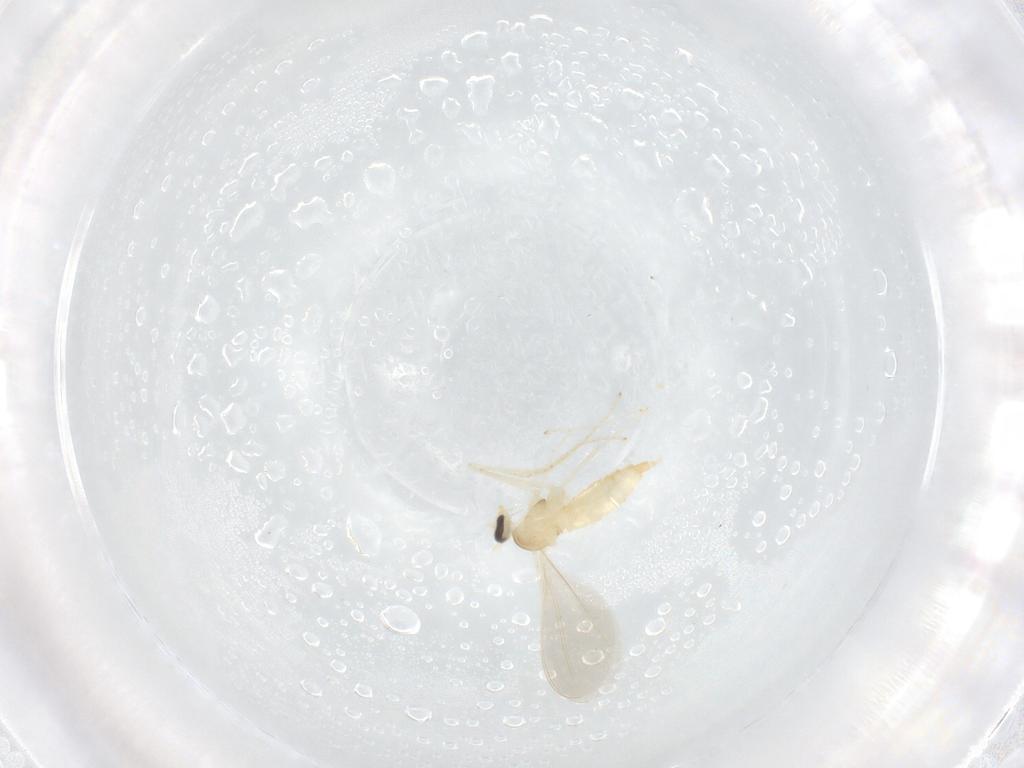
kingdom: Animalia
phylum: Arthropoda
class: Insecta
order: Diptera
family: Cecidomyiidae
